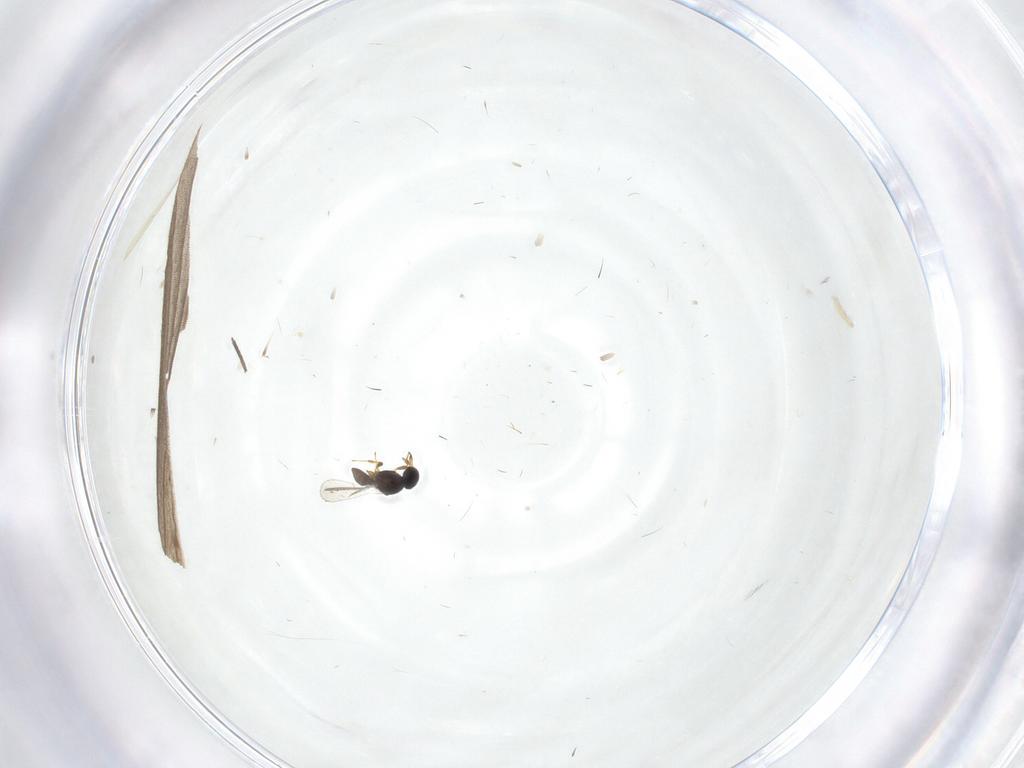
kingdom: Animalia
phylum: Arthropoda
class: Insecta
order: Hymenoptera
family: Platygastridae
